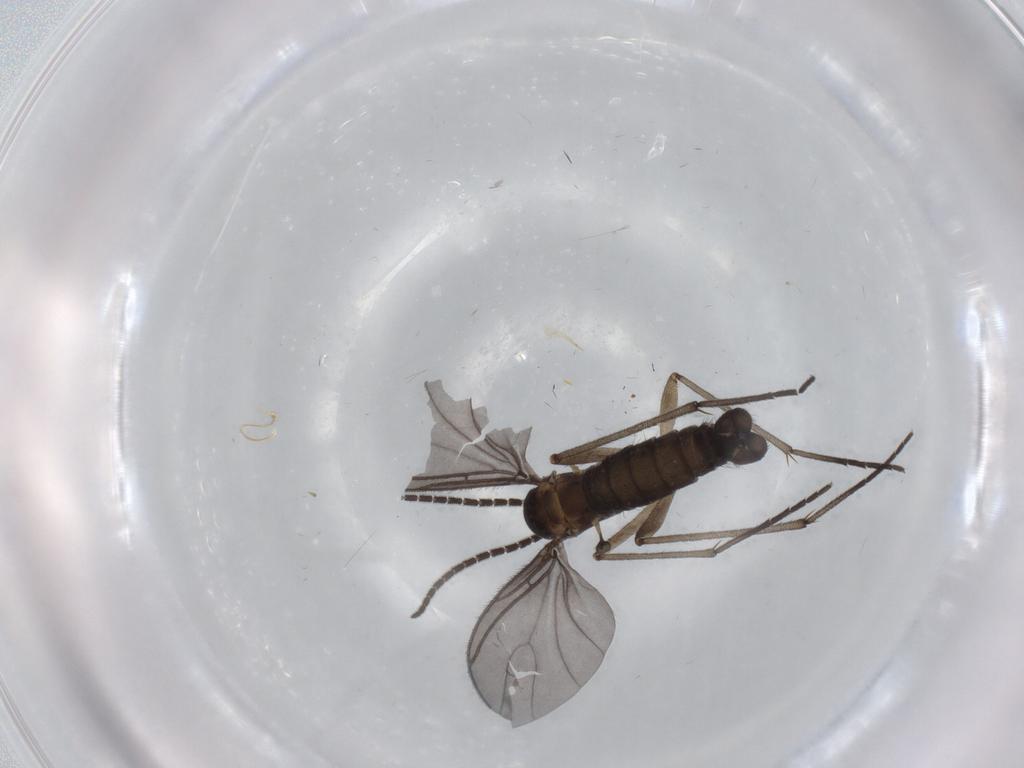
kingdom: Animalia
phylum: Arthropoda
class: Insecta
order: Diptera
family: Sciaridae
